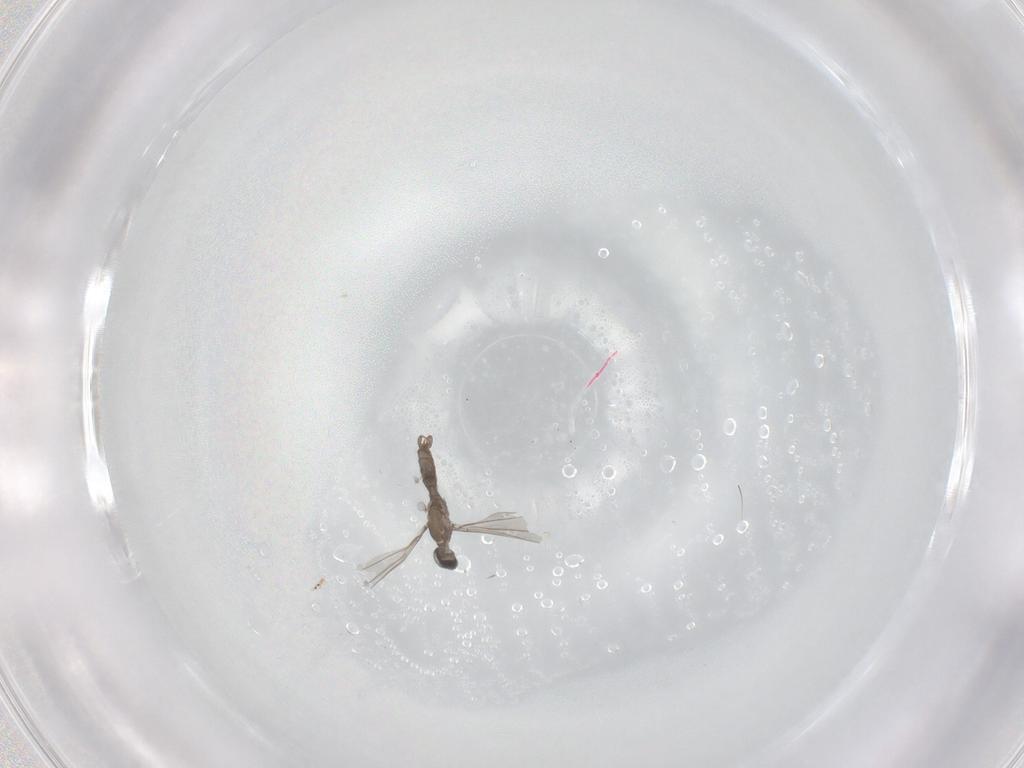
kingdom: Animalia
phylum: Arthropoda
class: Insecta
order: Diptera
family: Cecidomyiidae
